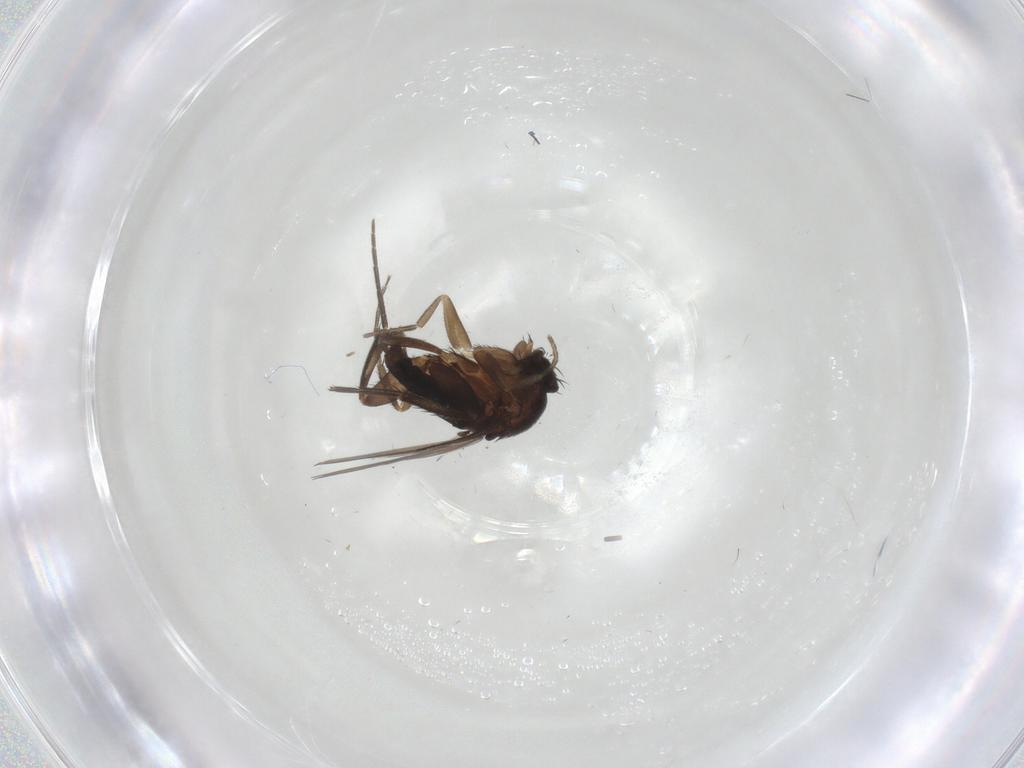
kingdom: Animalia
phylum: Arthropoda
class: Insecta
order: Diptera
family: Phoridae
